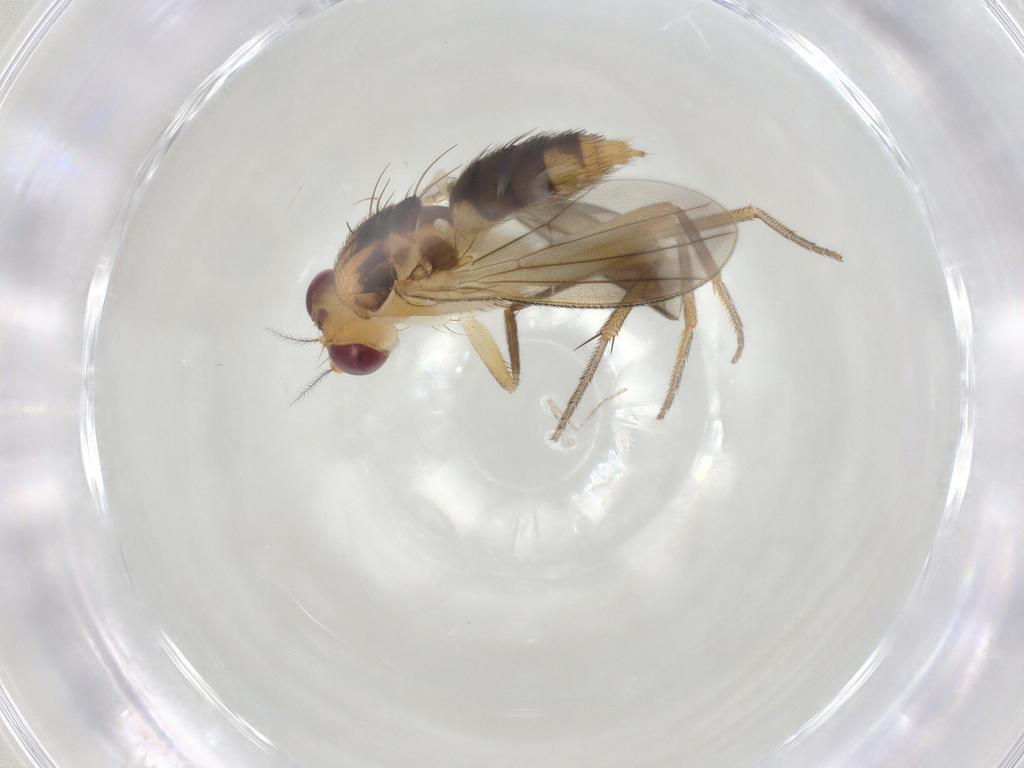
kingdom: Animalia
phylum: Arthropoda
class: Insecta
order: Diptera
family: Clusiidae
